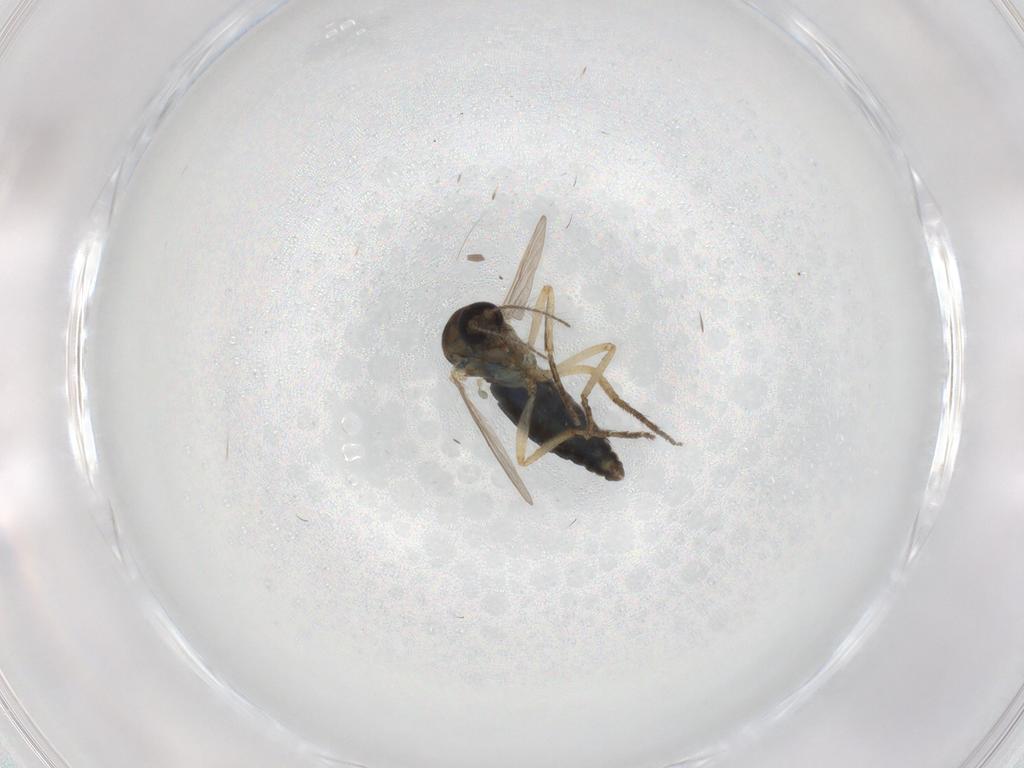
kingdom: Animalia
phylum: Arthropoda
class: Insecta
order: Diptera
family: Ceratopogonidae
